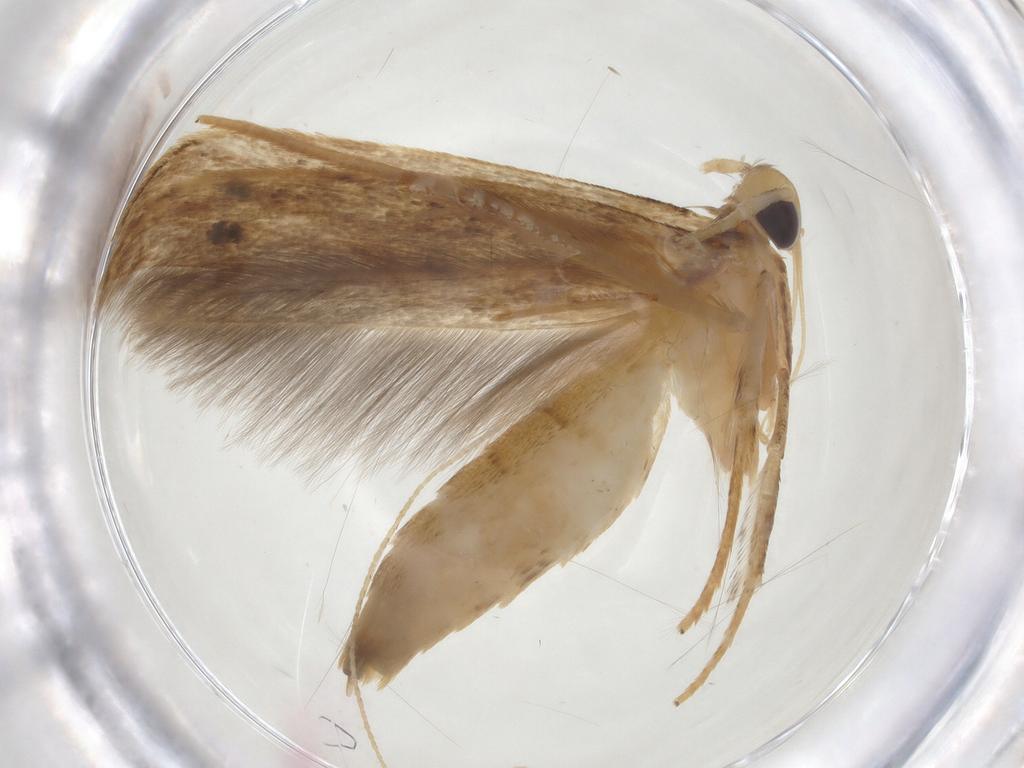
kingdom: Animalia
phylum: Arthropoda
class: Insecta
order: Lepidoptera
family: Coleophoridae
